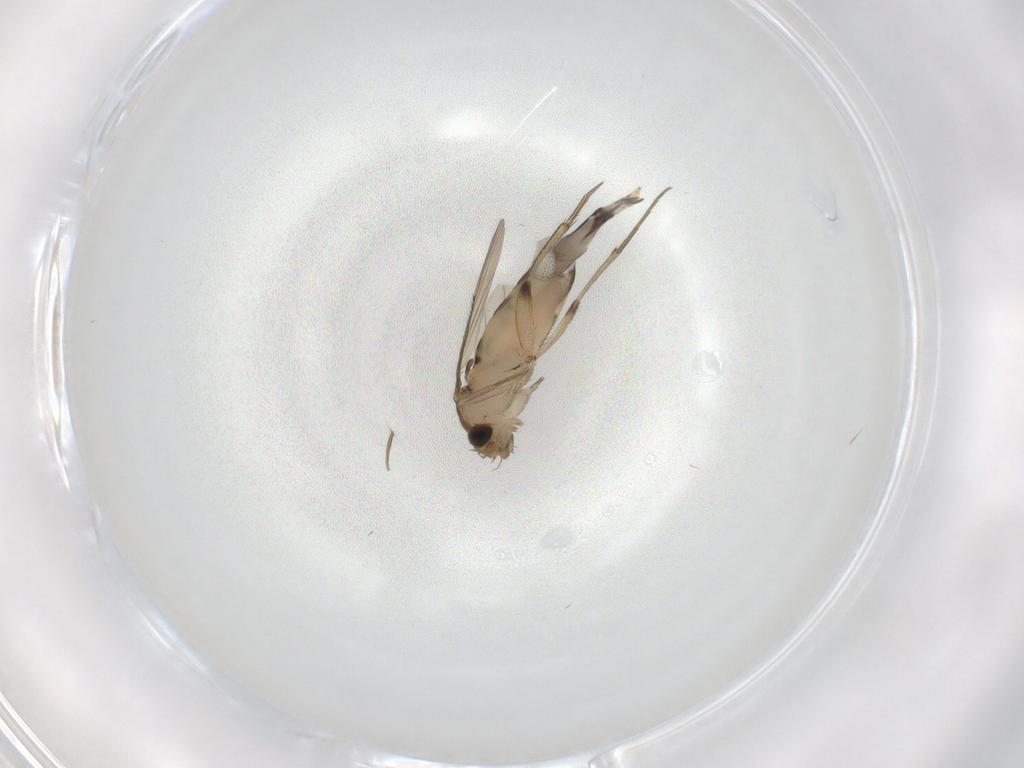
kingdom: Animalia
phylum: Arthropoda
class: Insecta
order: Diptera
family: Phoridae
